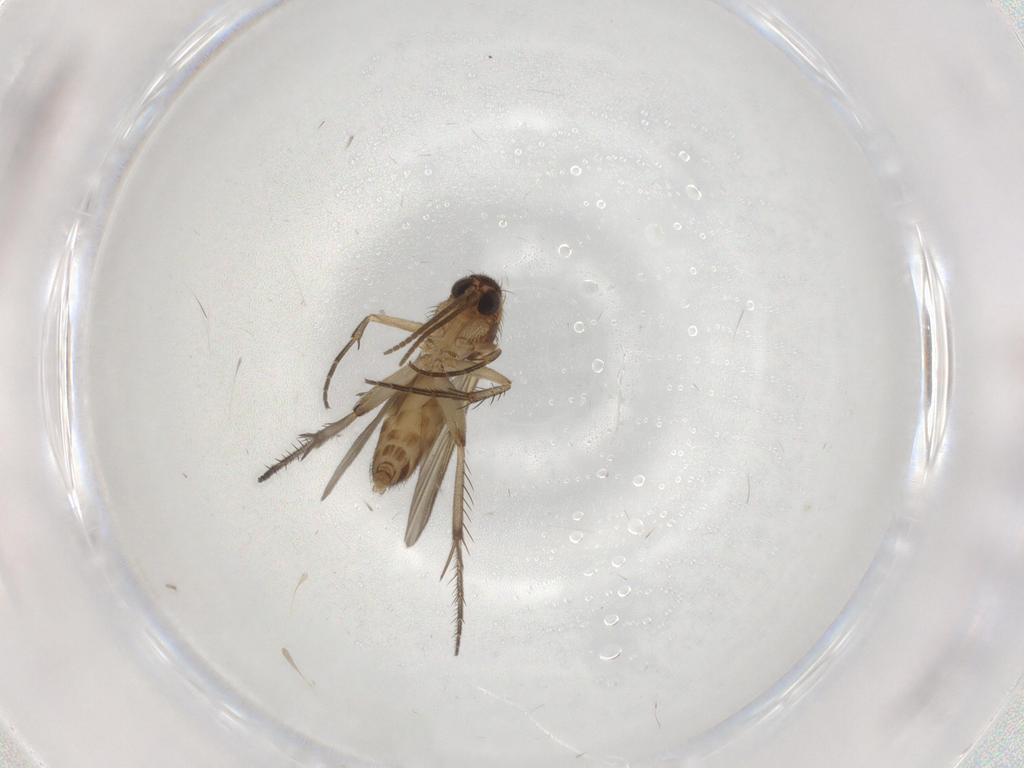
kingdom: Animalia
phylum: Arthropoda
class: Insecta
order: Diptera
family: Mycetophilidae
